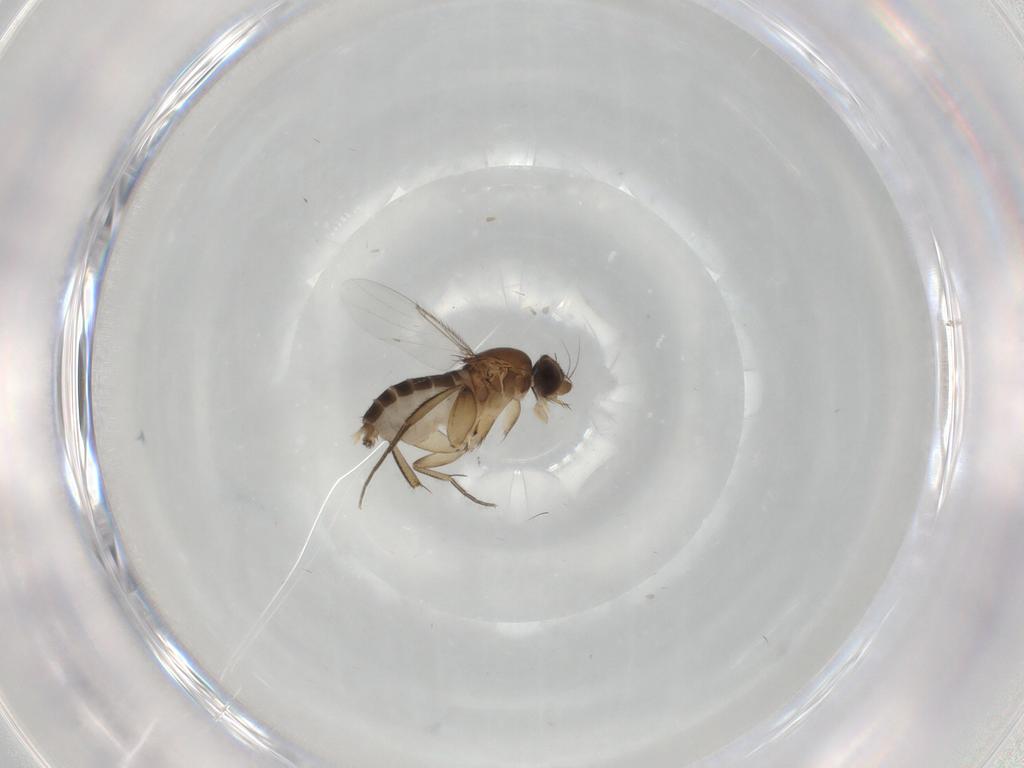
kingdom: Animalia
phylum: Arthropoda
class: Insecta
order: Diptera
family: Phoridae
